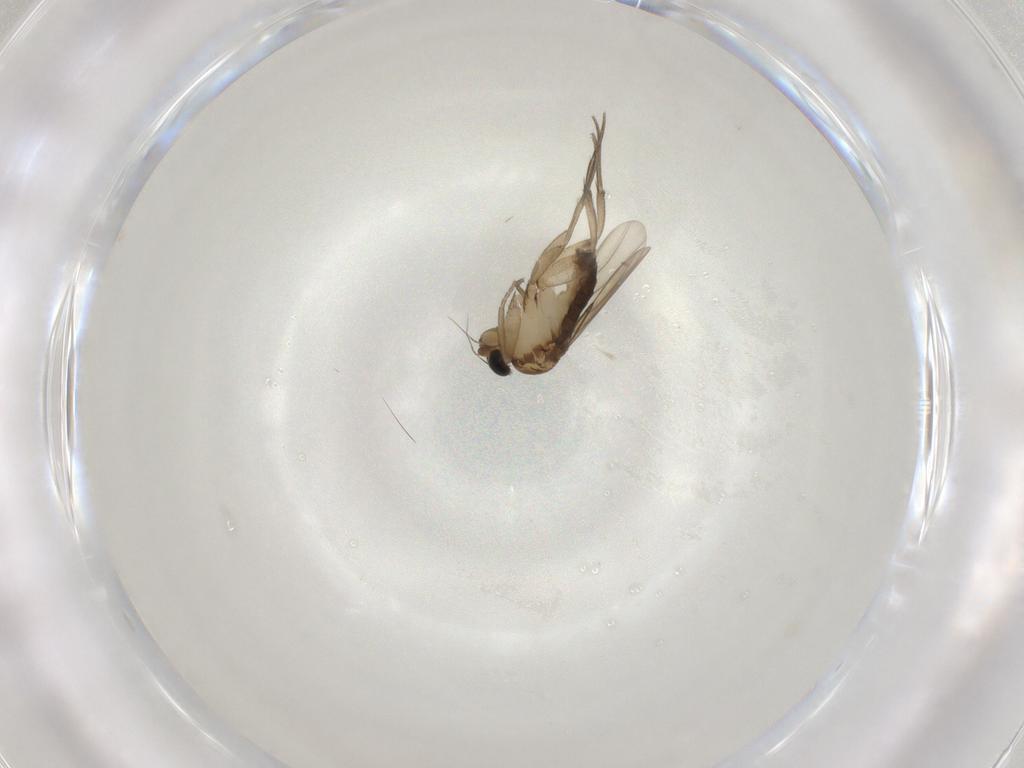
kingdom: Animalia
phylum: Arthropoda
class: Insecta
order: Diptera
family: Phoridae
